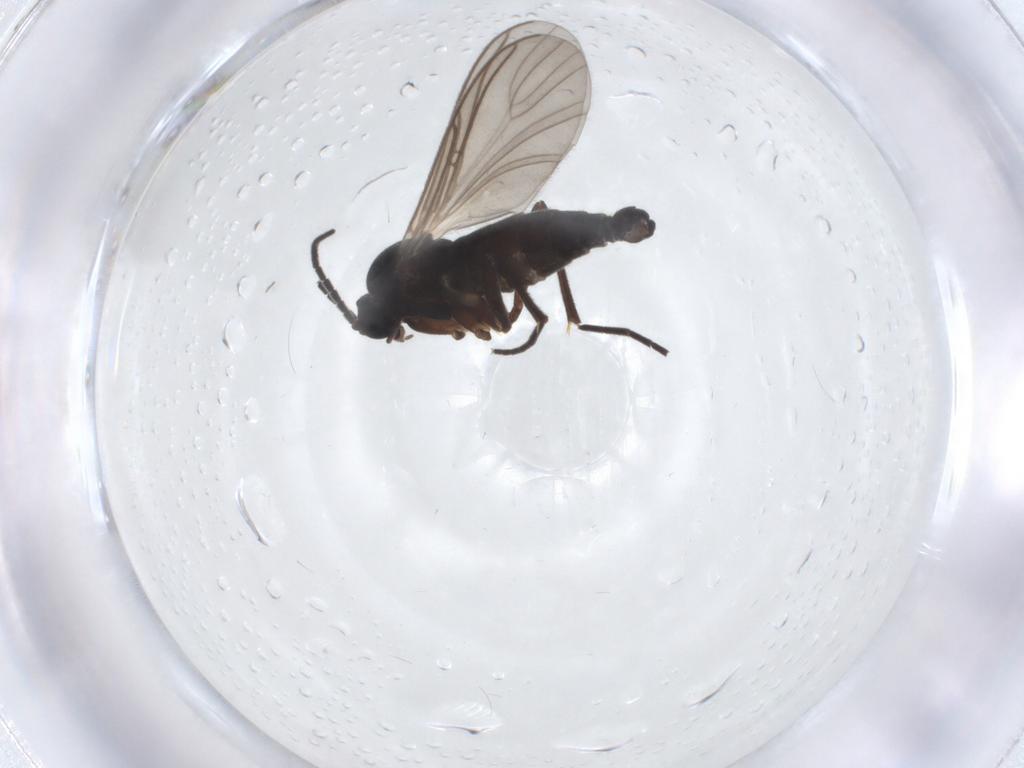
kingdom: Animalia
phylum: Arthropoda
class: Insecta
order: Diptera
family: Sciaridae
